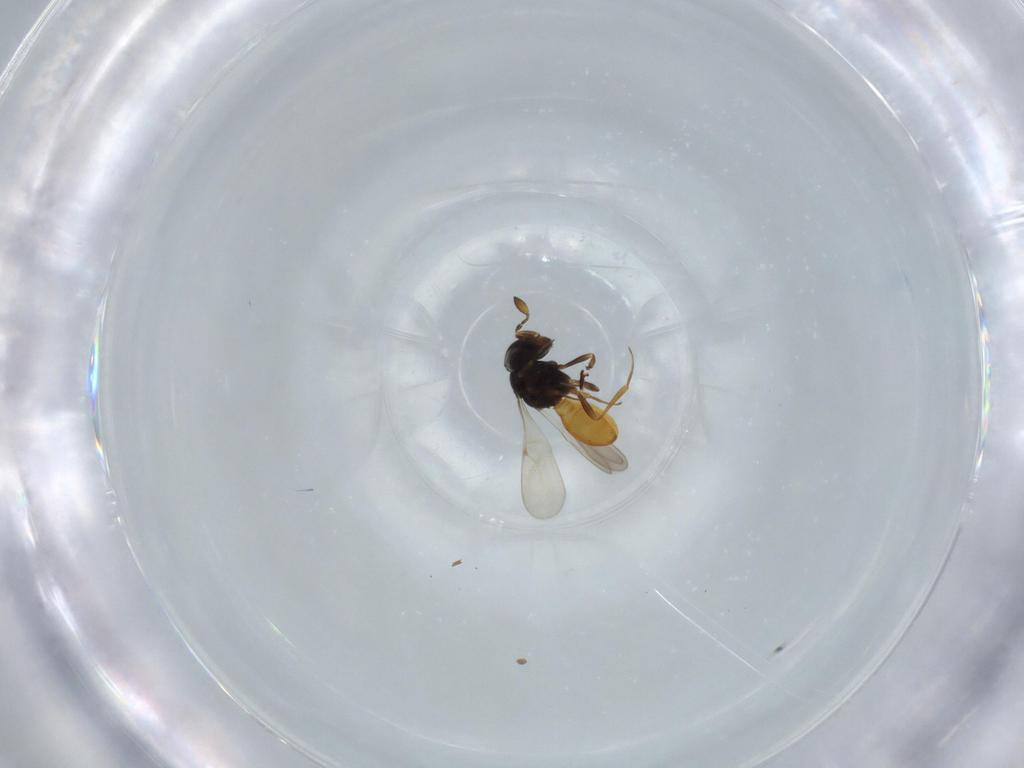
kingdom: Animalia
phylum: Arthropoda
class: Insecta
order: Hymenoptera
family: Scelionidae
